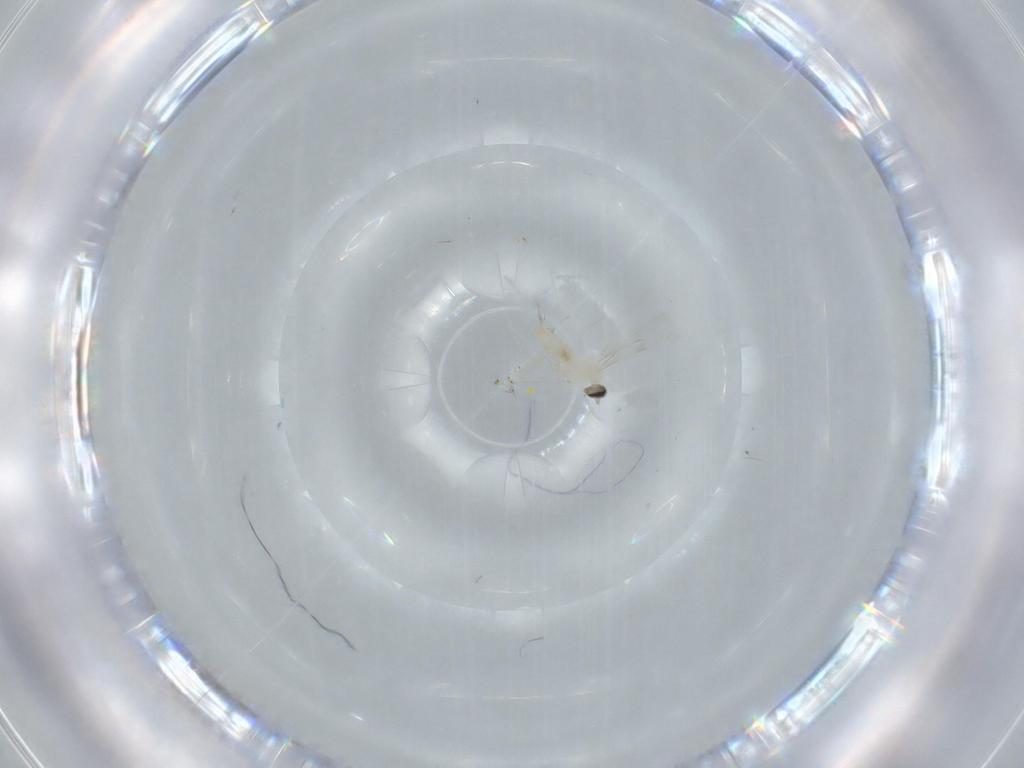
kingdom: Animalia
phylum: Arthropoda
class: Insecta
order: Diptera
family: Cecidomyiidae
